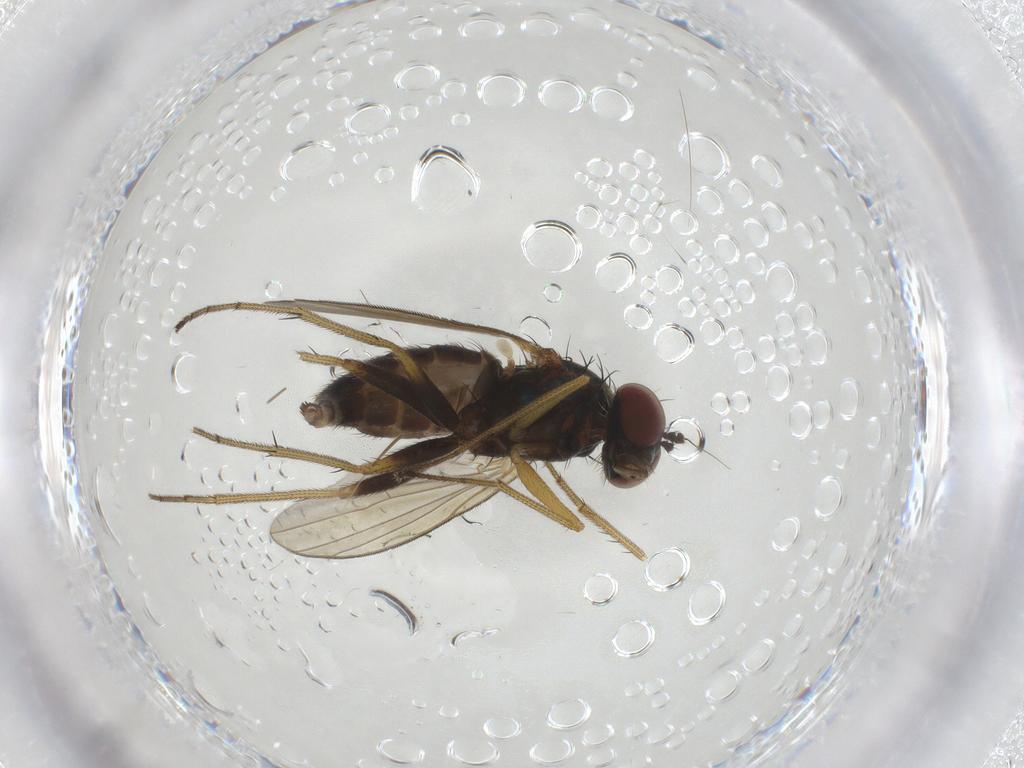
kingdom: Animalia
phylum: Arthropoda
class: Insecta
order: Diptera
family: Dolichopodidae
